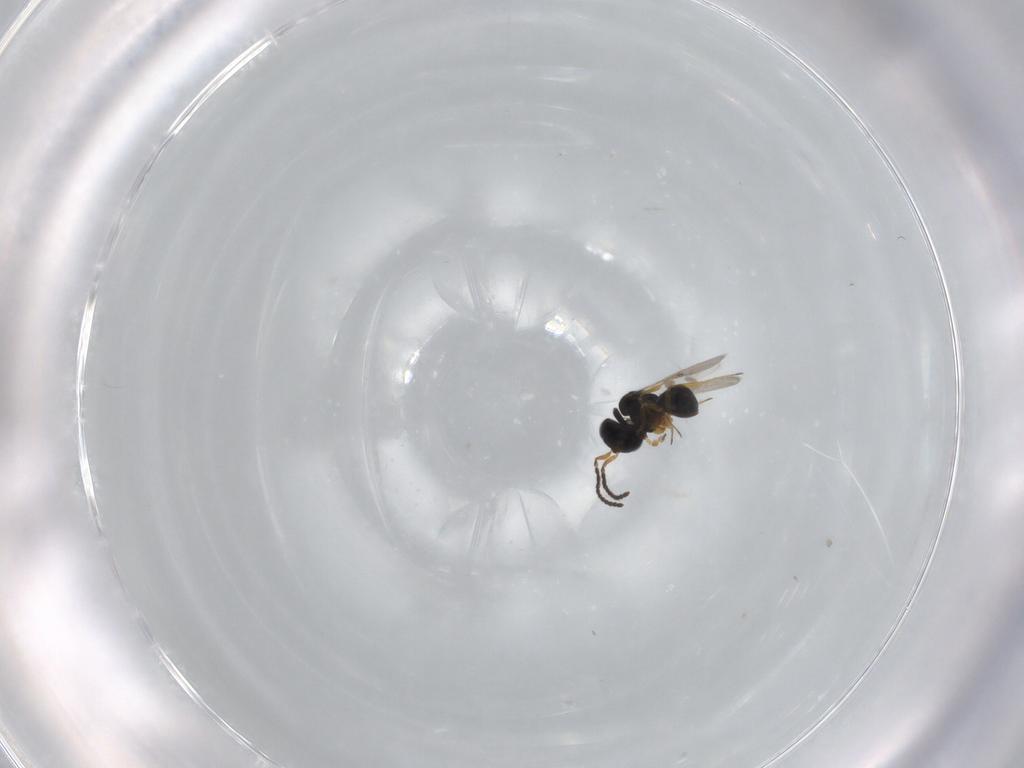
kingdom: Animalia
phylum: Arthropoda
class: Insecta
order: Hymenoptera
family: Scelionidae
